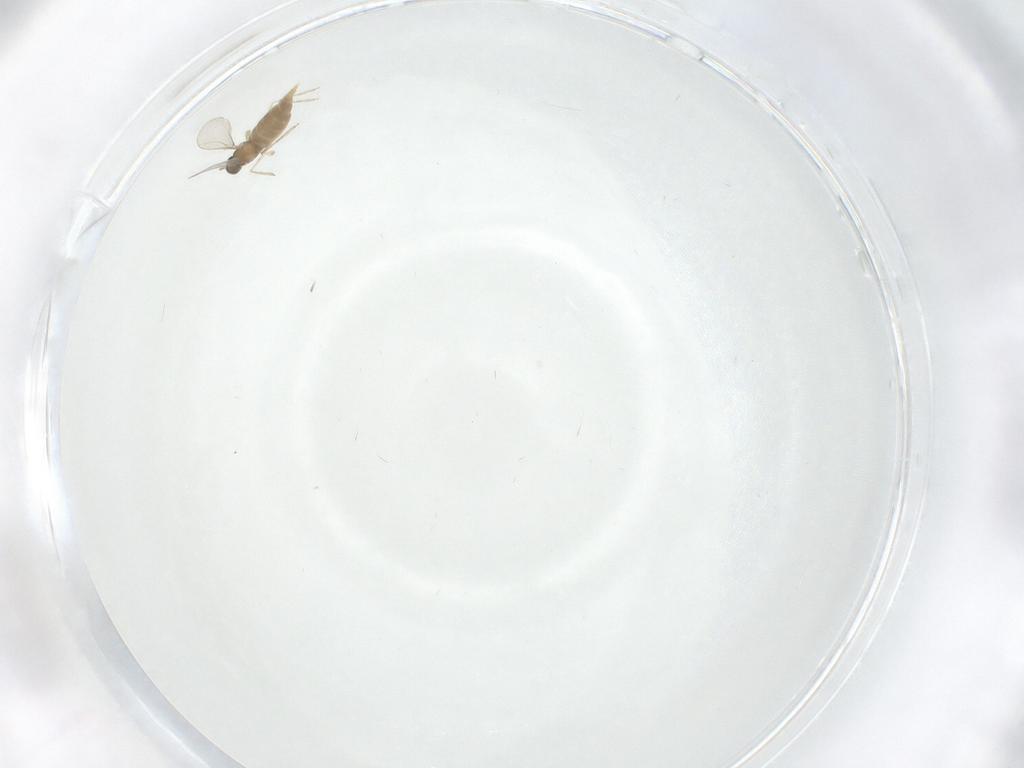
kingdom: Animalia
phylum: Arthropoda
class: Insecta
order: Diptera
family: Cecidomyiidae
